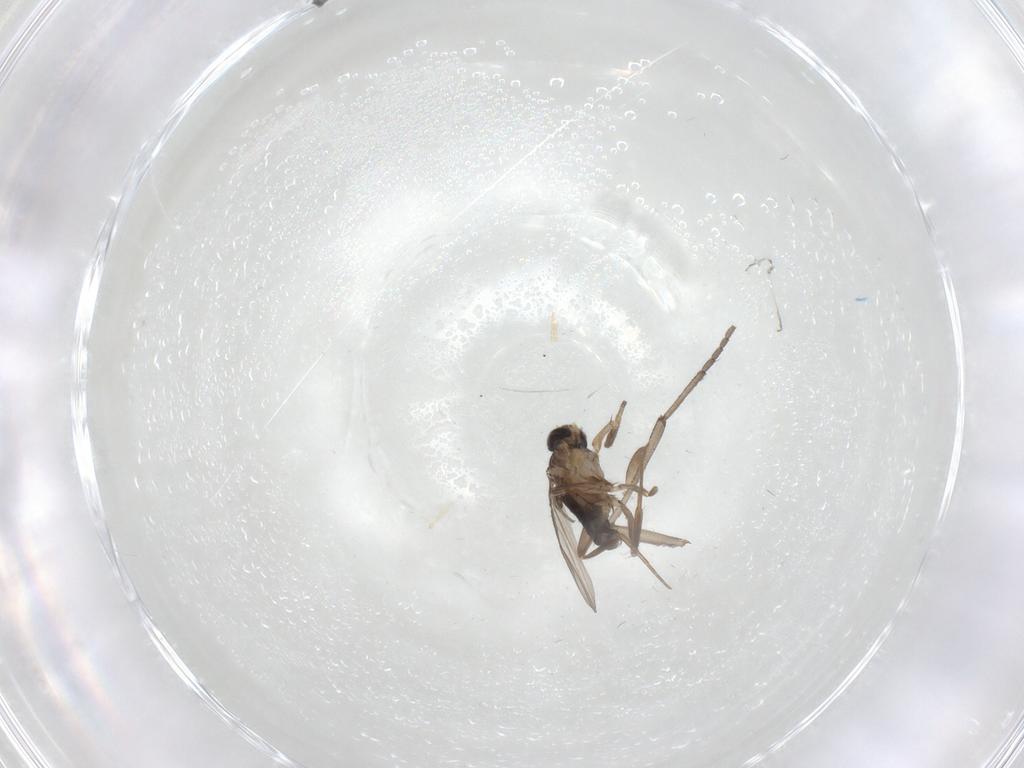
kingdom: Animalia
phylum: Arthropoda
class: Insecta
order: Diptera
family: Phoridae
